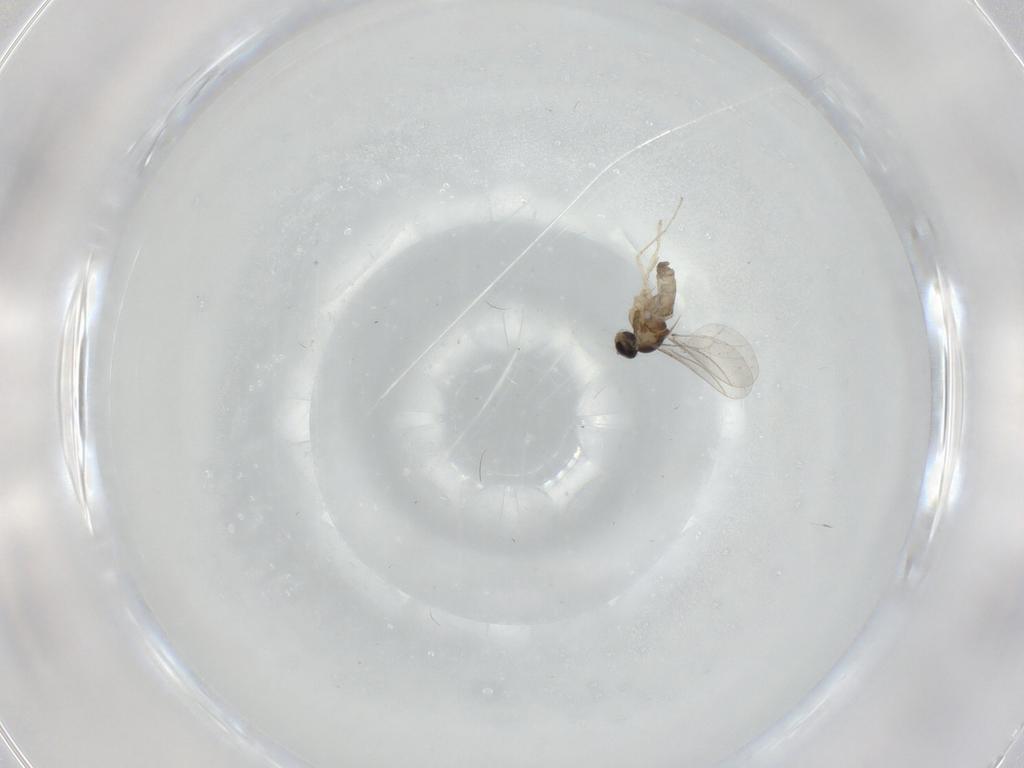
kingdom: Animalia
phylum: Arthropoda
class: Insecta
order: Diptera
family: Cecidomyiidae
